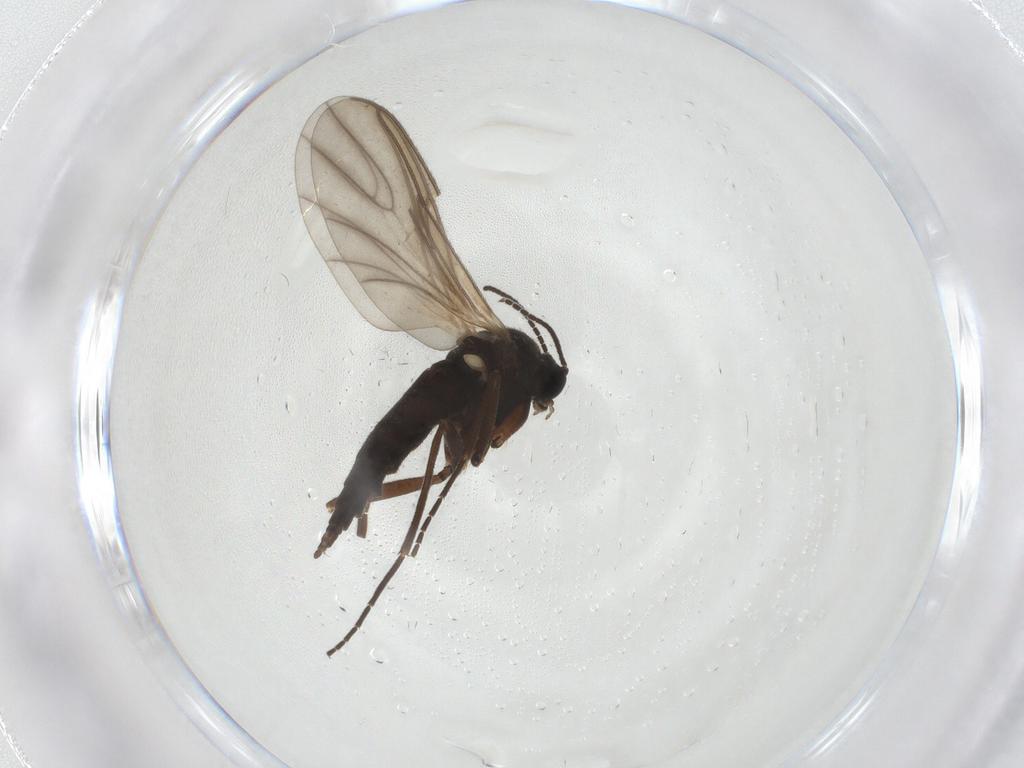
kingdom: Animalia
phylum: Arthropoda
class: Insecta
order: Diptera
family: Sciaridae
